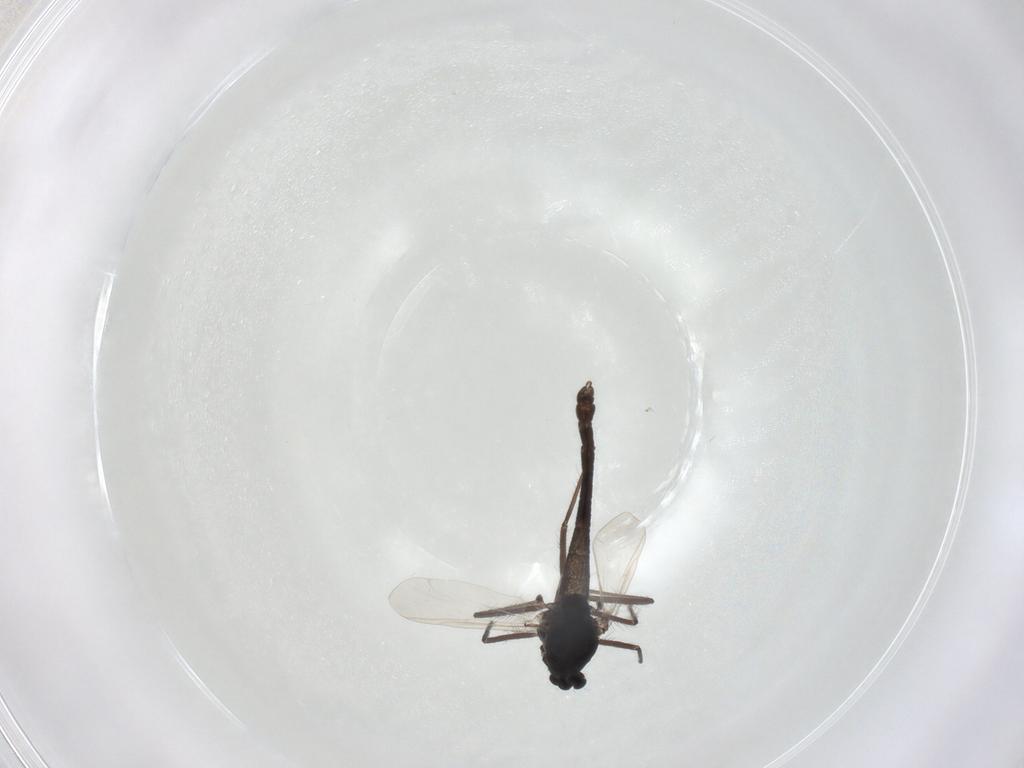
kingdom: Animalia
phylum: Arthropoda
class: Insecta
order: Diptera
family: Chironomidae
